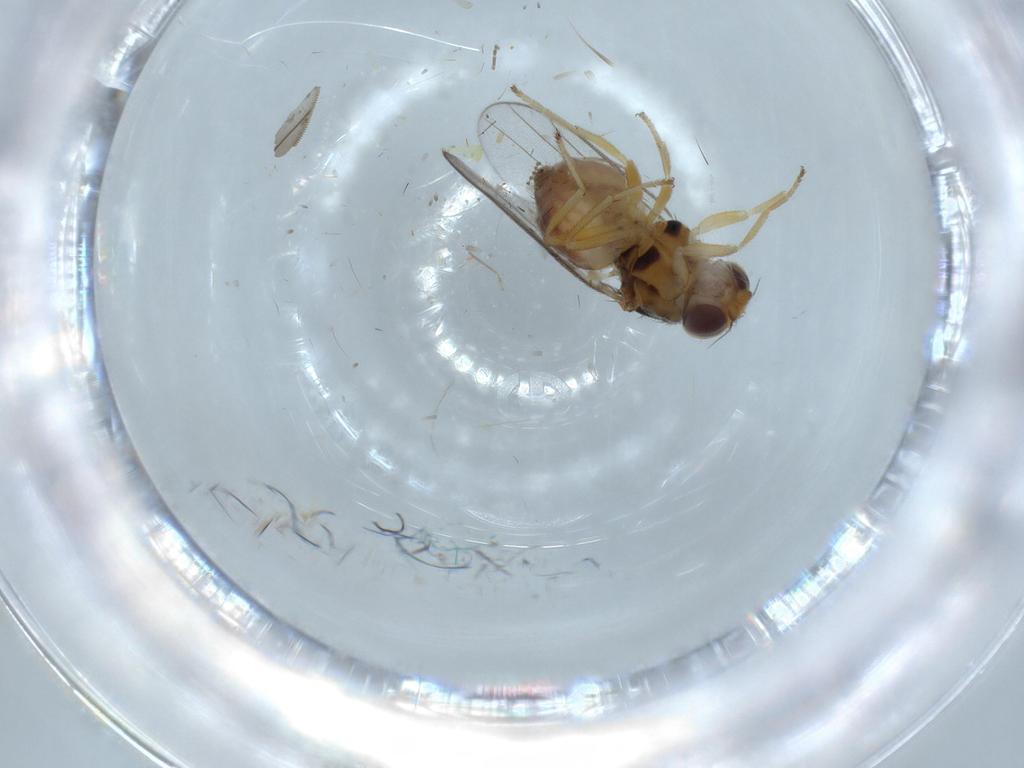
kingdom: Animalia
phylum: Arthropoda
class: Insecta
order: Diptera
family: Chloropidae
